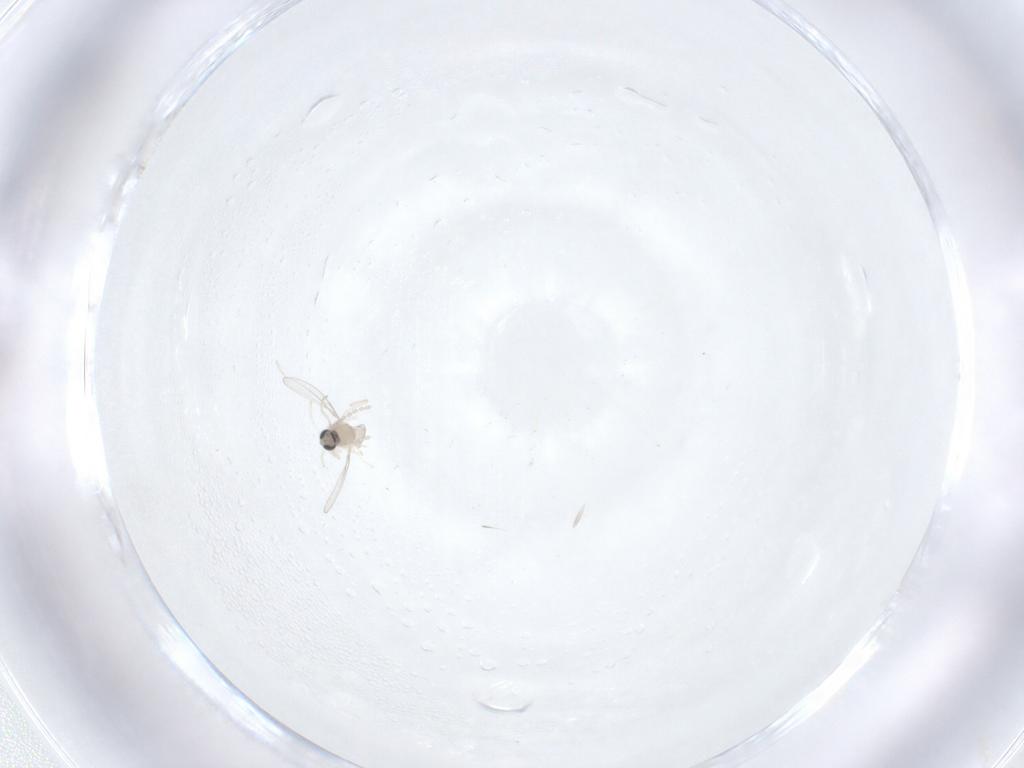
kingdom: Animalia
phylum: Arthropoda
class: Insecta
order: Diptera
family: Cecidomyiidae
